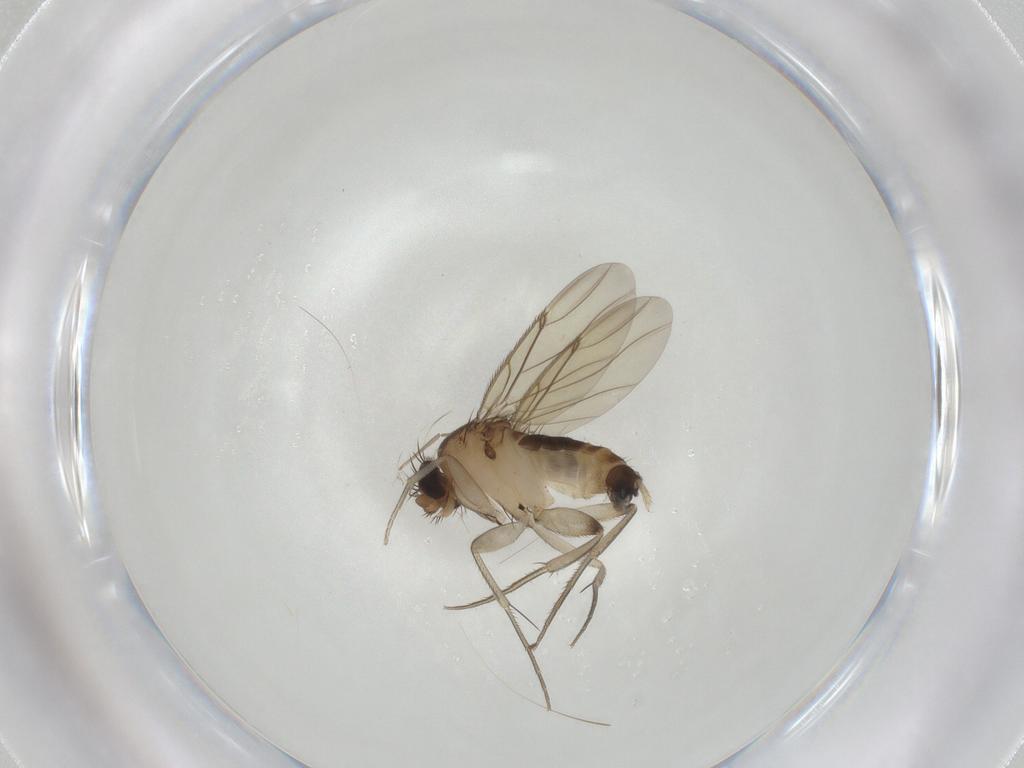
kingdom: Animalia
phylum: Arthropoda
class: Insecta
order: Diptera
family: Phoridae
